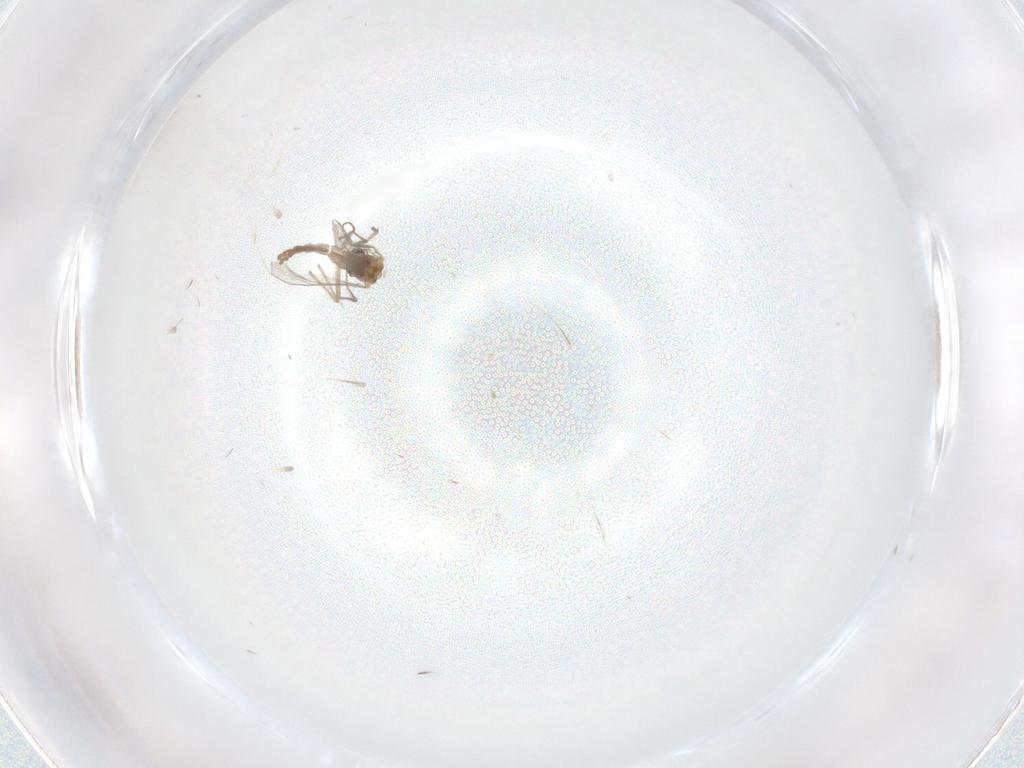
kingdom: Animalia
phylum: Arthropoda
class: Insecta
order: Diptera
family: Chironomidae
